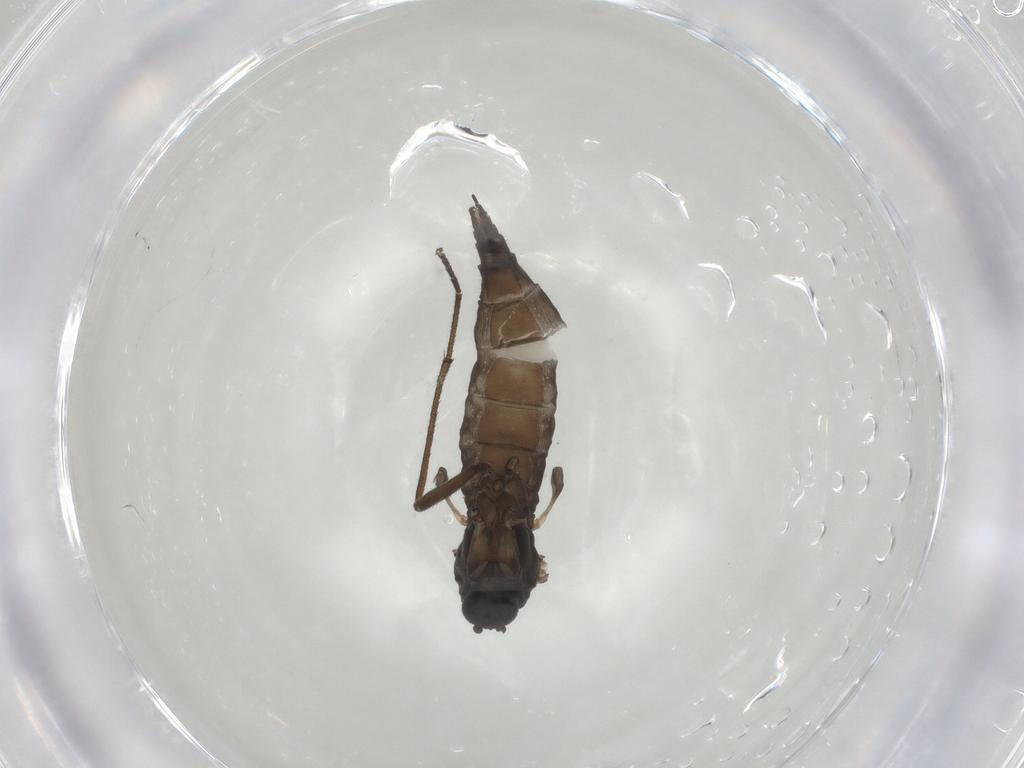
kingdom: Animalia
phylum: Arthropoda
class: Insecta
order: Diptera
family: Sciaridae
